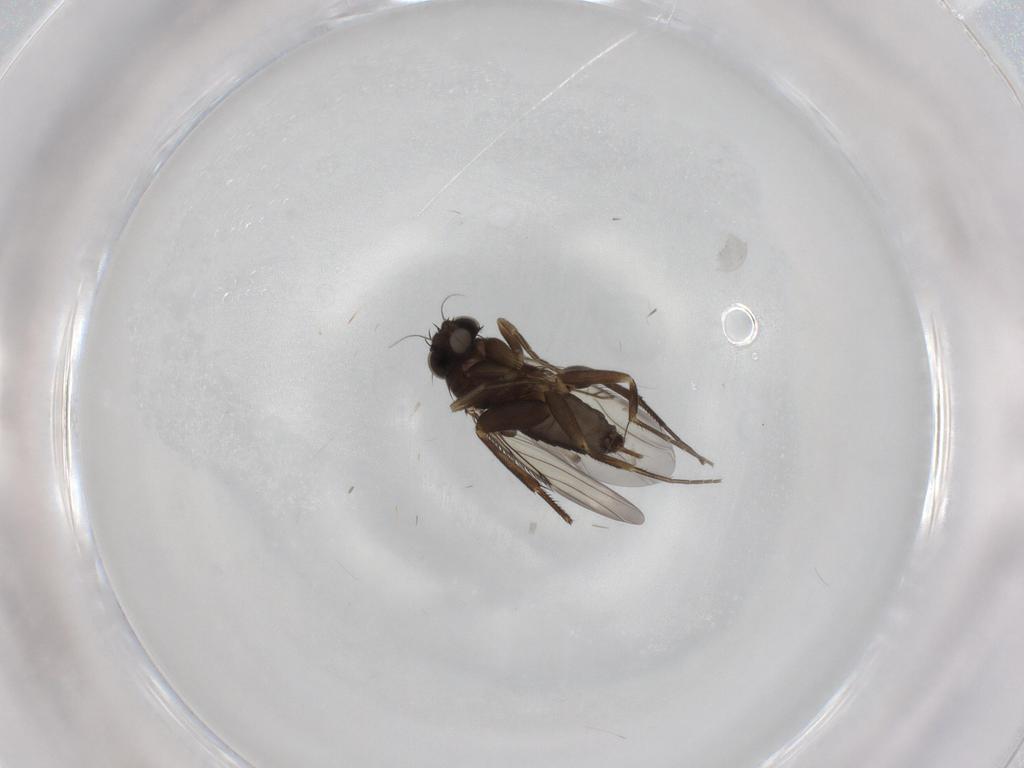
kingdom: Animalia
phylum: Arthropoda
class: Insecta
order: Diptera
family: Phoridae
